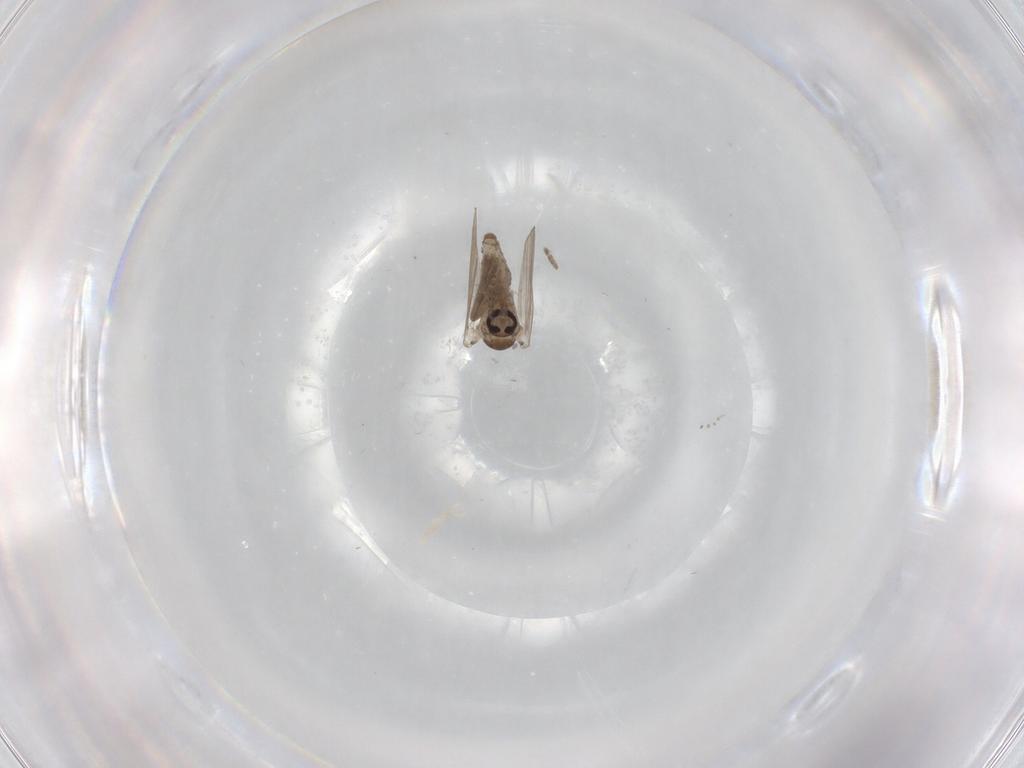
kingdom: Animalia
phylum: Arthropoda
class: Insecta
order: Diptera
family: Psychodidae
